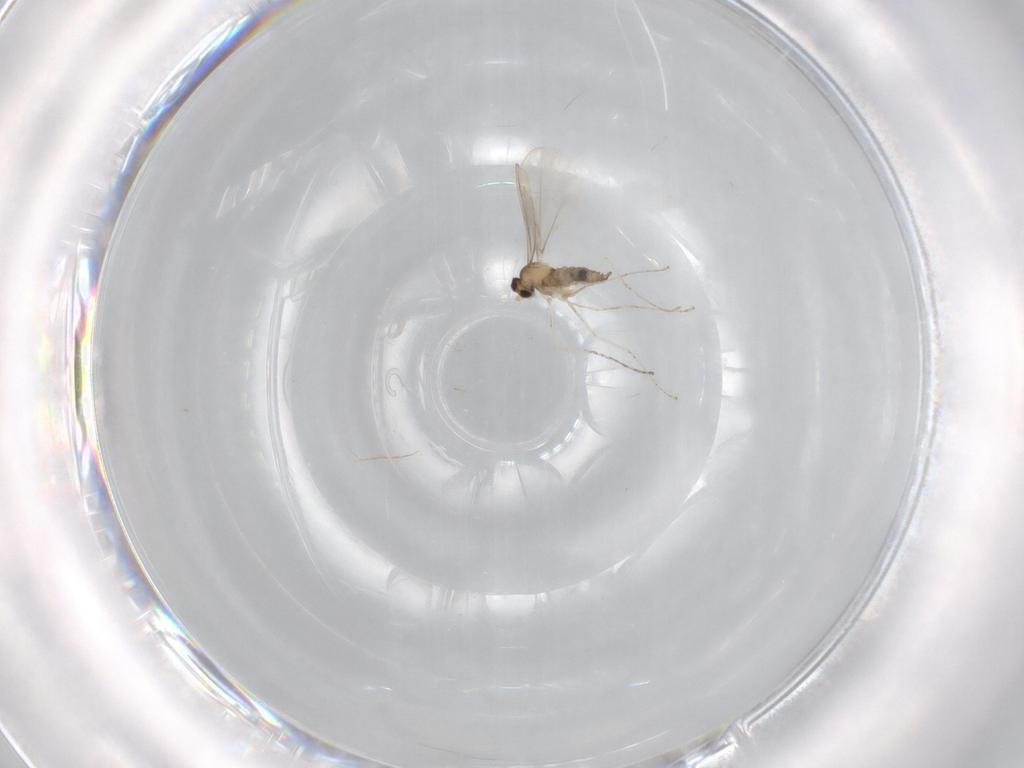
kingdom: Animalia
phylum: Arthropoda
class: Insecta
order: Diptera
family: Cecidomyiidae
